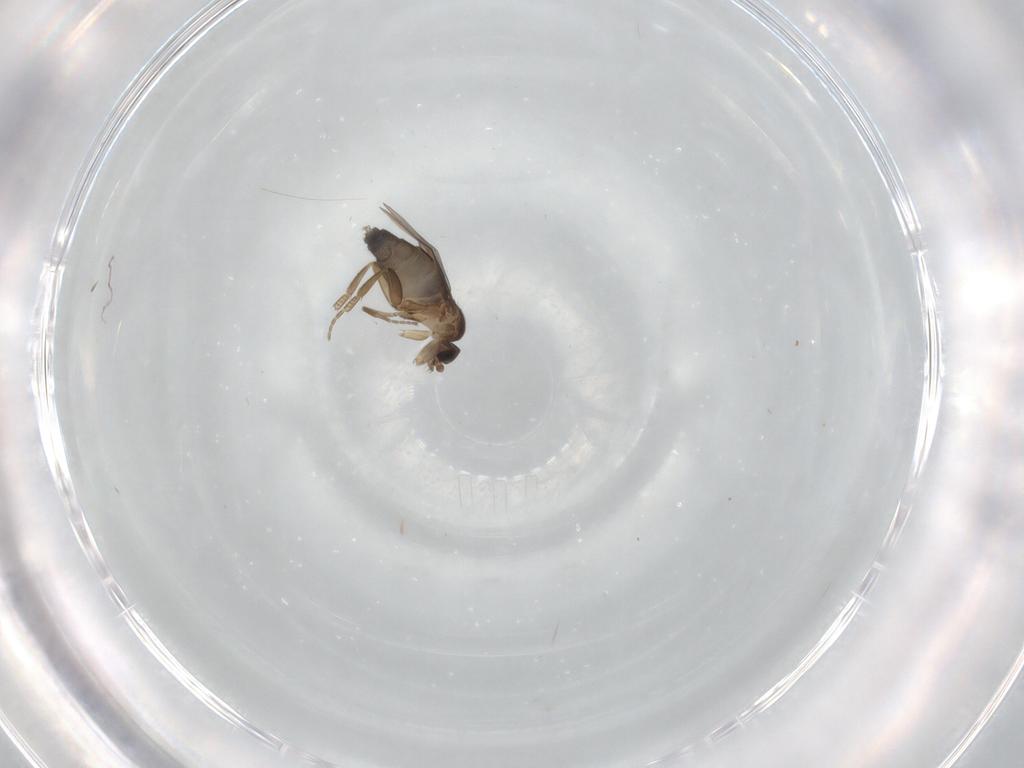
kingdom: Animalia
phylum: Arthropoda
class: Insecta
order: Diptera
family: Phoridae
